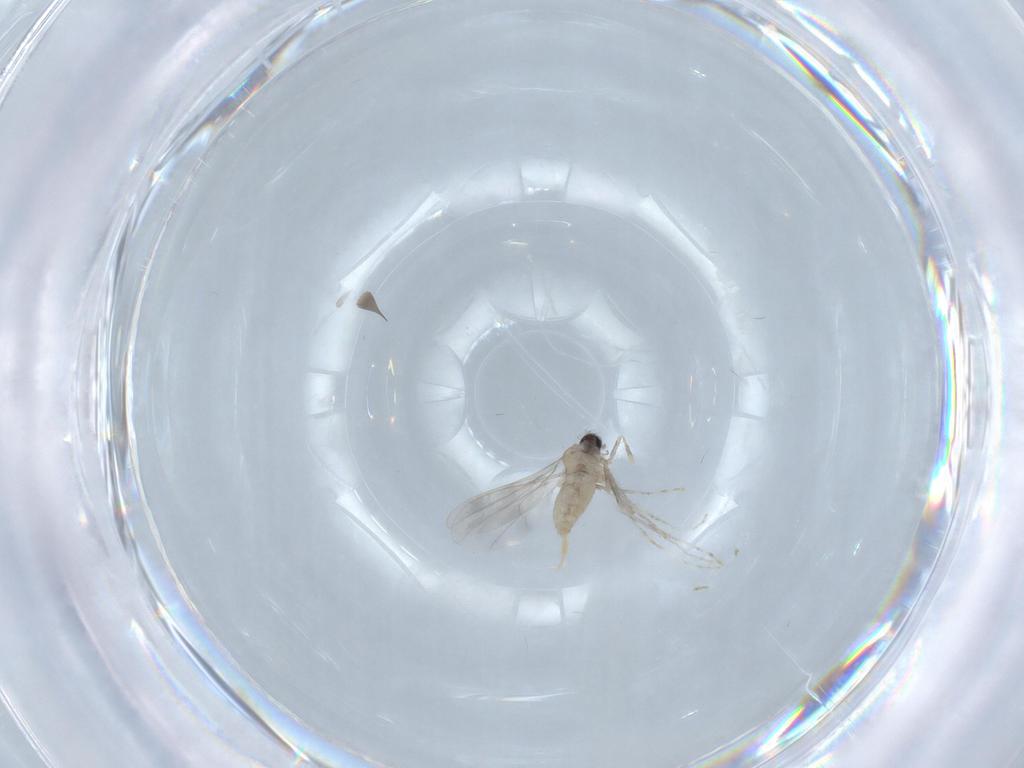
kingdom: Animalia
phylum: Arthropoda
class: Insecta
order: Diptera
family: Cecidomyiidae
